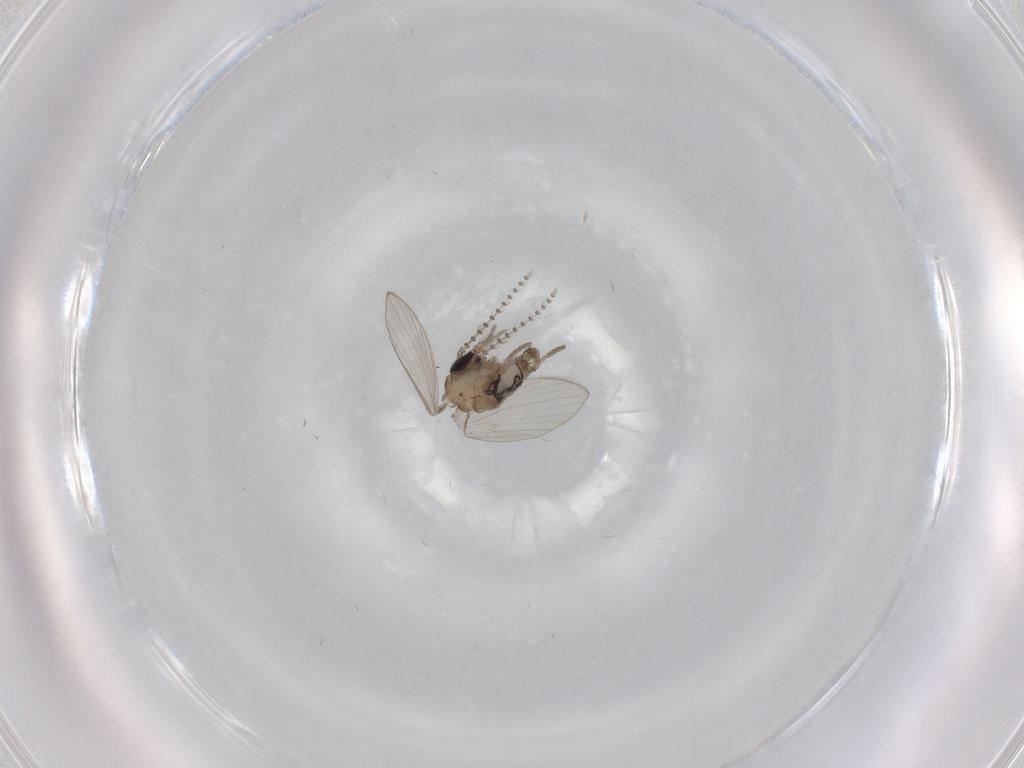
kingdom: Animalia
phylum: Arthropoda
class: Insecta
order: Diptera
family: Psychodidae
